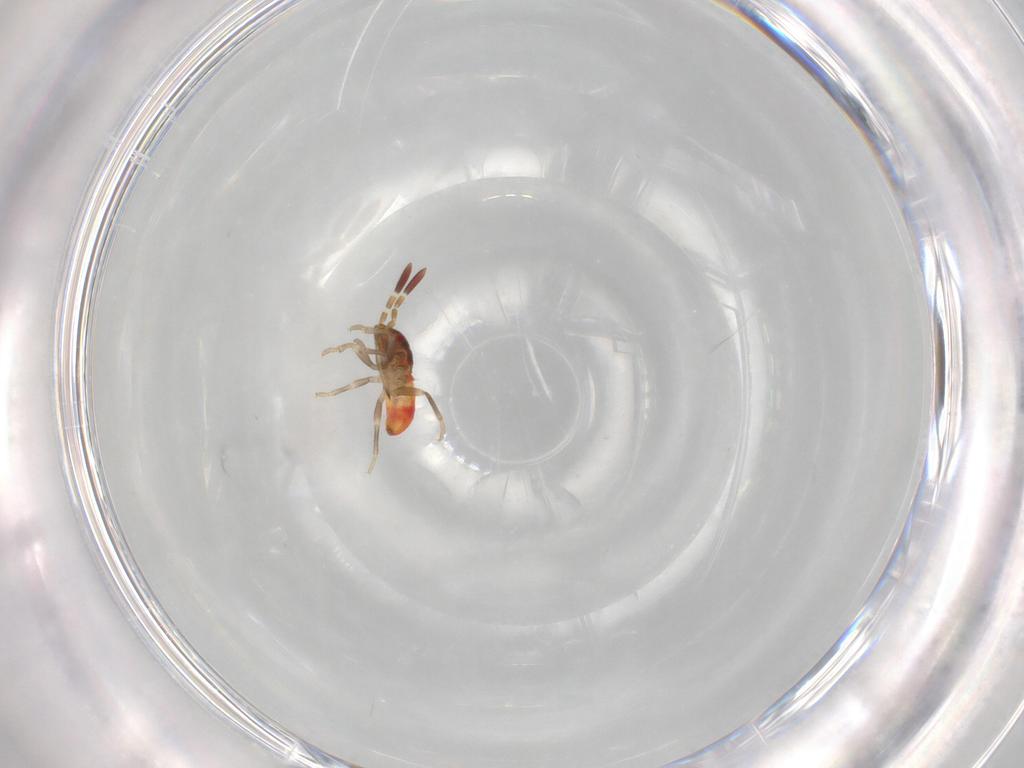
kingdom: Animalia
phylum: Arthropoda
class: Insecta
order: Hemiptera
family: Rhyparochromidae
